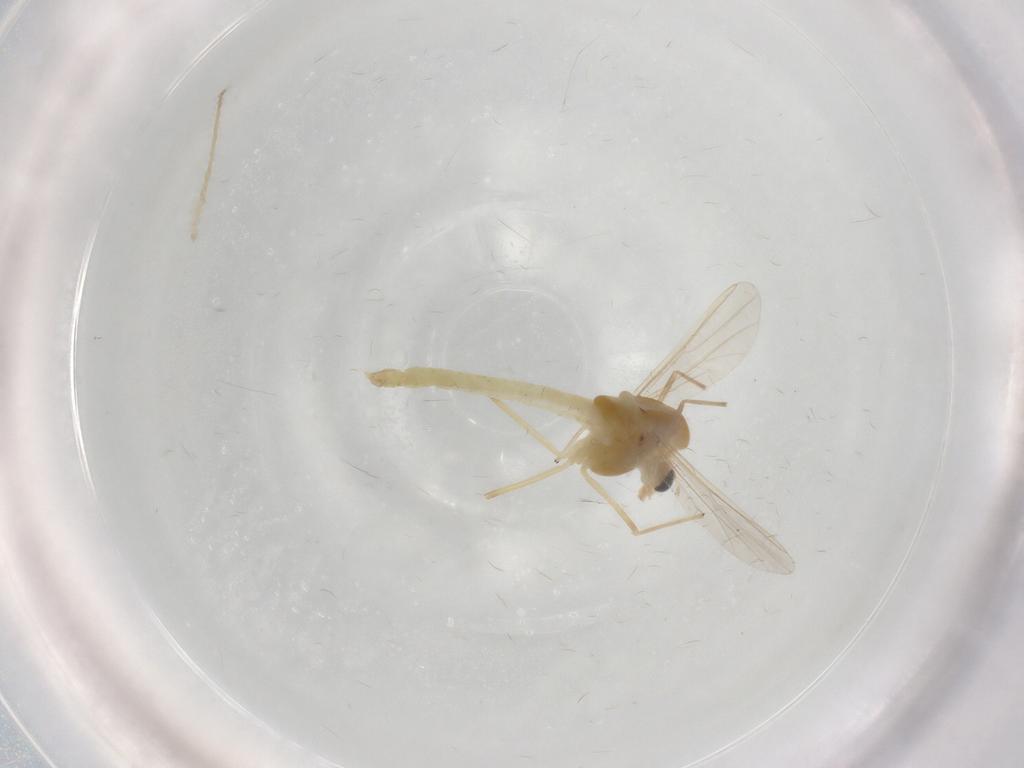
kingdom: Animalia
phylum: Arthropoda
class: Insecta
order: Diptera
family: Chironomidae
